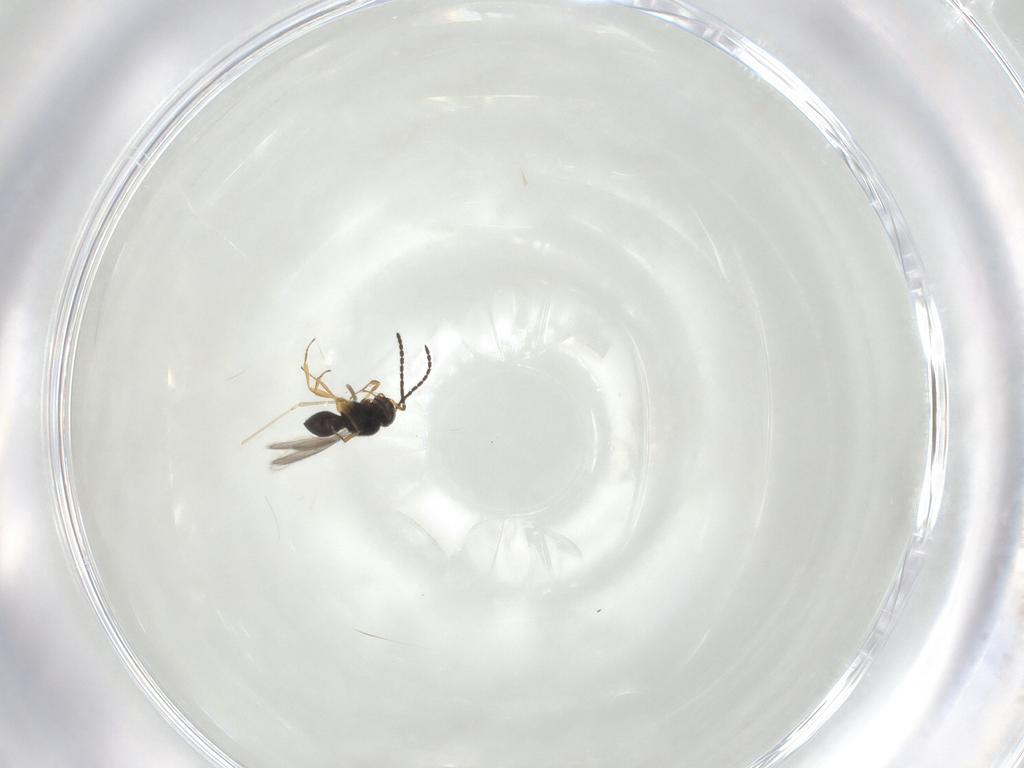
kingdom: Animalia
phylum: Arthropoda
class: Insecta
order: Hymenoptera
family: Scelionidae
